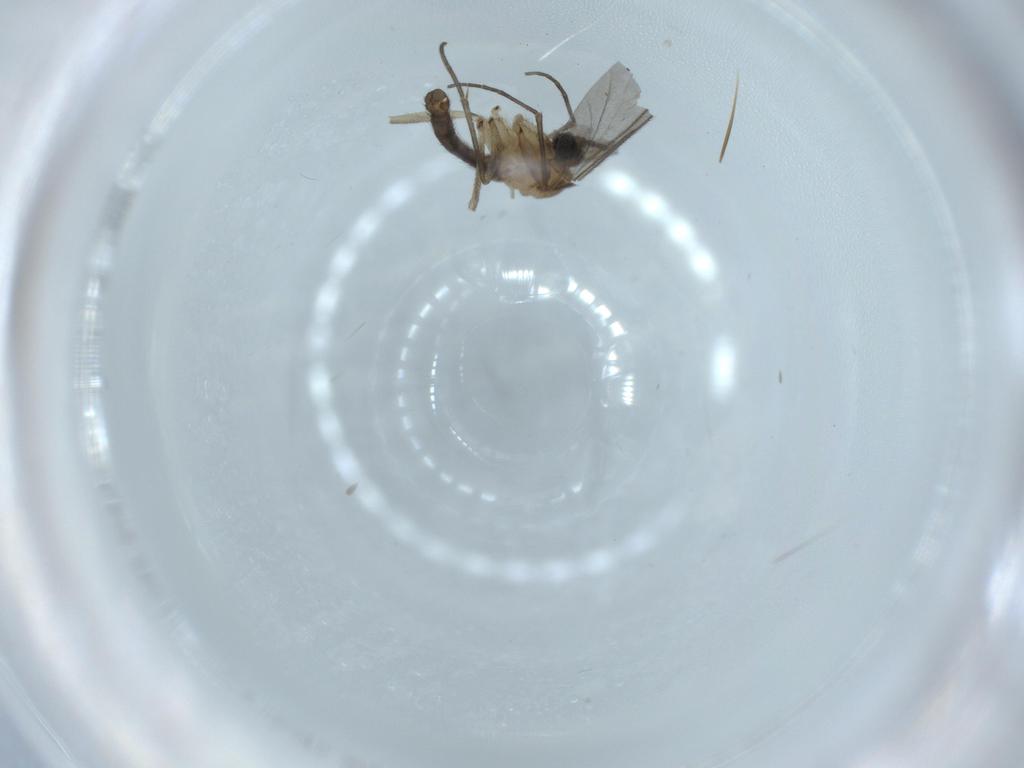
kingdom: Animalia
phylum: Arthropoda
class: Insecta
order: Diptera
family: Sciaridae
